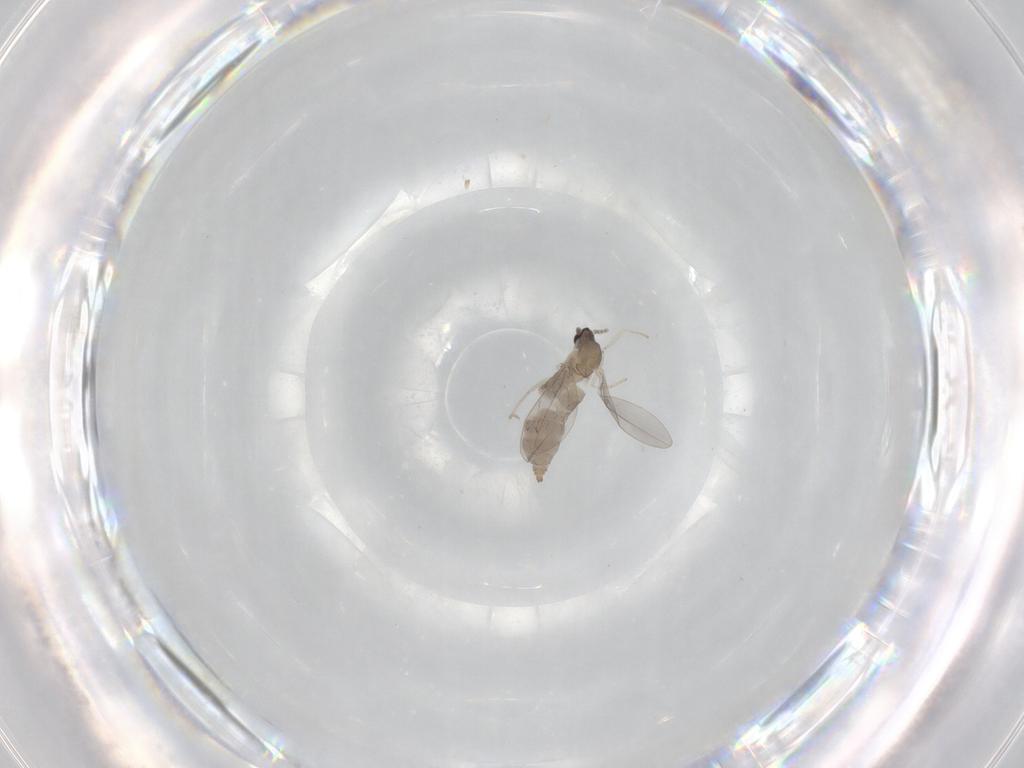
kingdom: Animalia
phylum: Arthropoda
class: Insecta
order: Diptera
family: Cecidomyiidae
